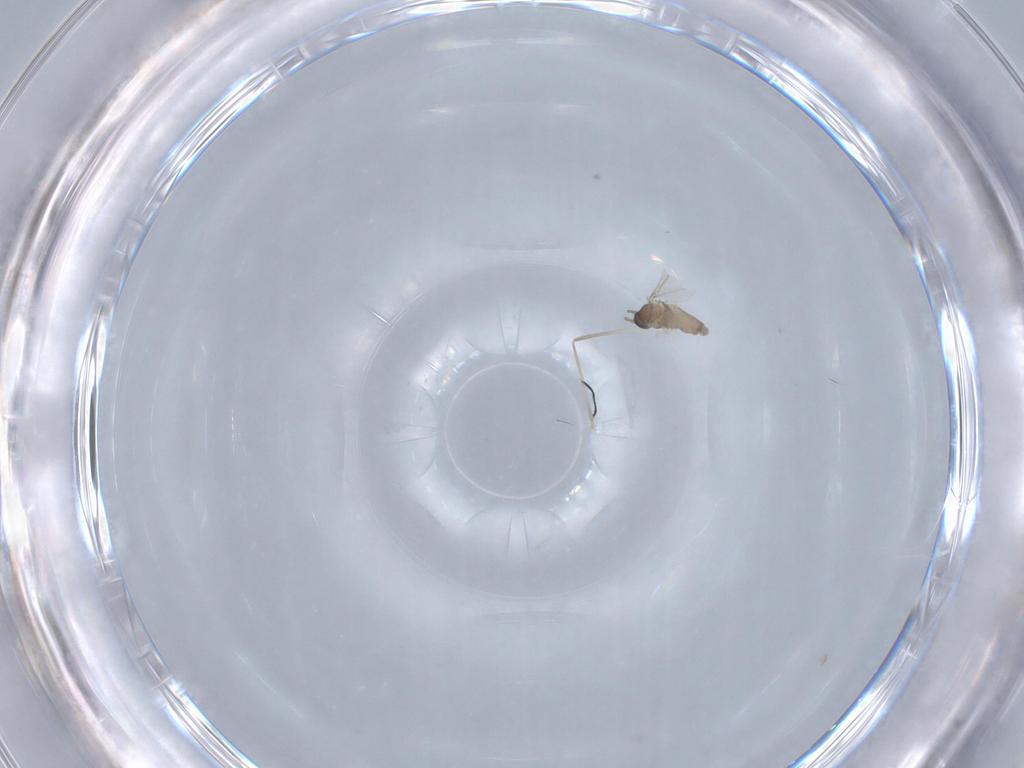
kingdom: Animalia
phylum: Arthropoda
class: Insecta
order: Diptera
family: Cecidomyiidae
